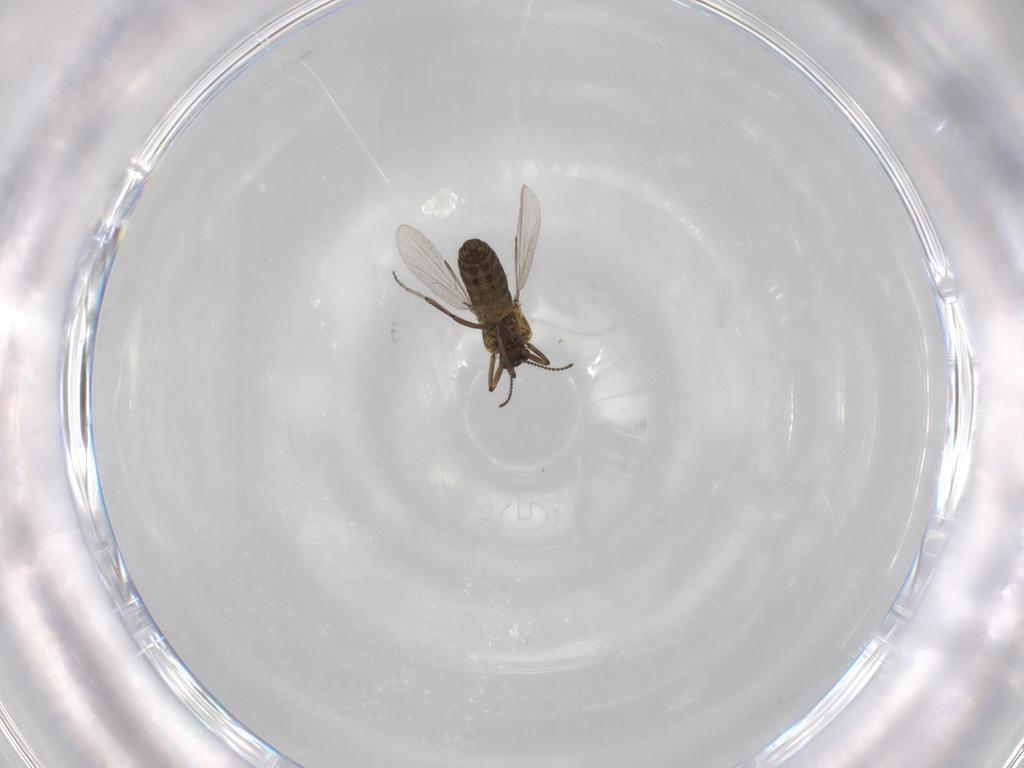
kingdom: Animalia
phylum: Arthropoda
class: Insecta
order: Diptera
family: Ceratopogonidae
